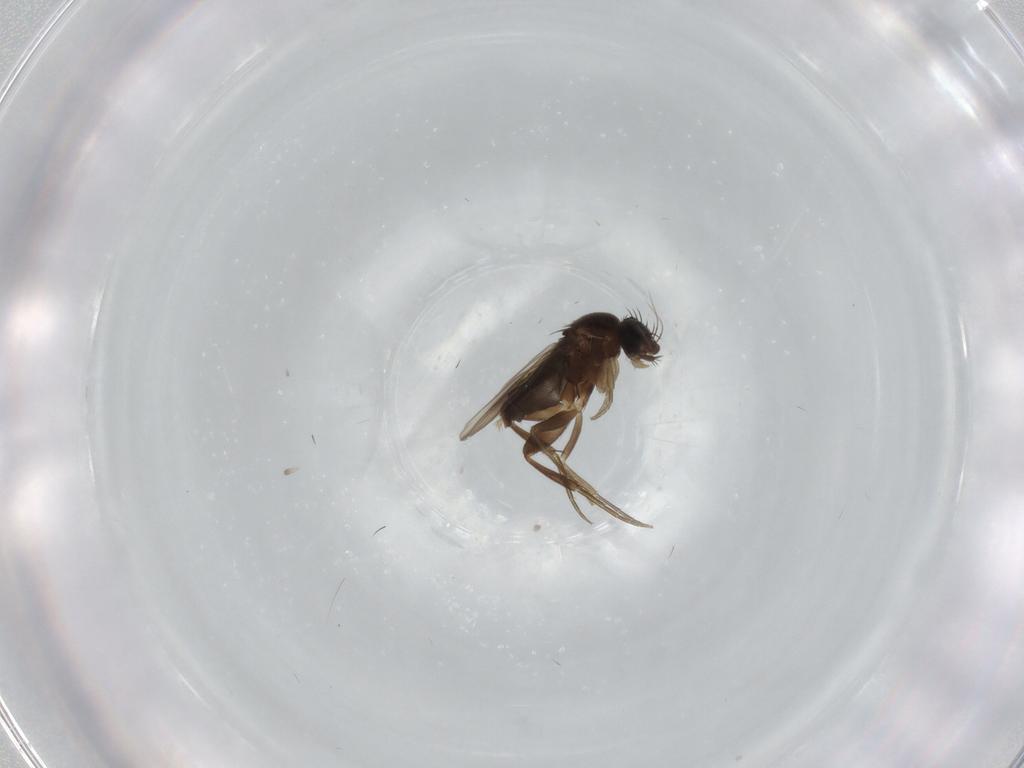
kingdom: Animalia
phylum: Arthropoda
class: Insecta
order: Diptera
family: Phoridae
